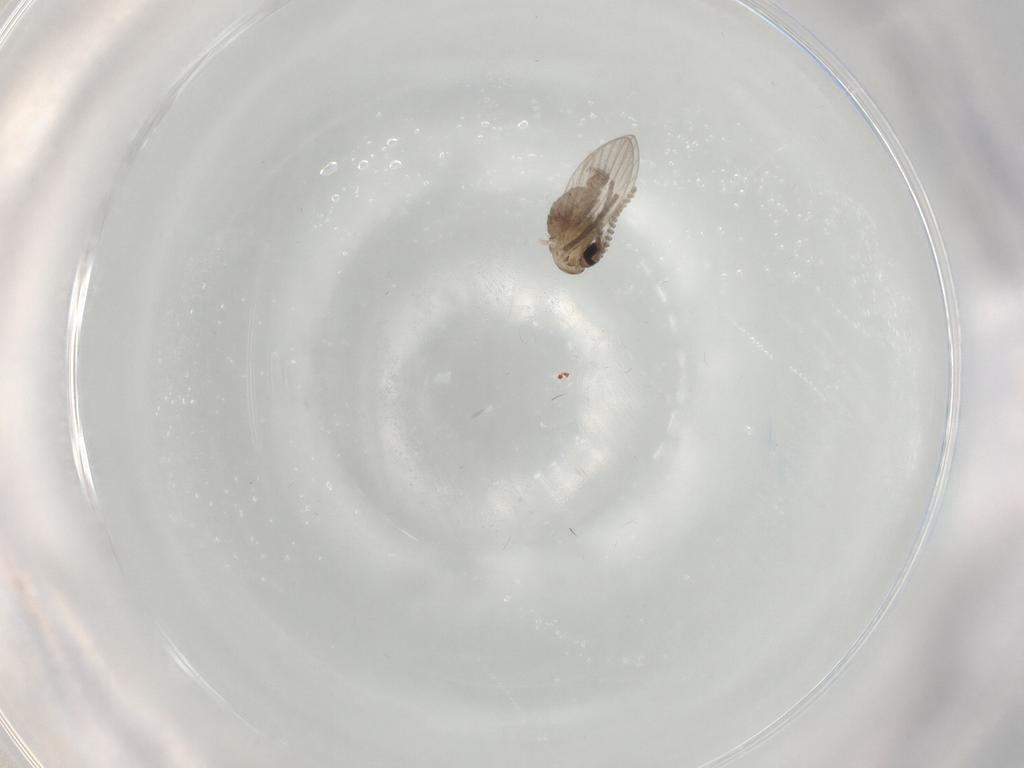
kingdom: Animalia
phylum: Arthropoda
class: Insecta
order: Diptera
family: Psychodidae
